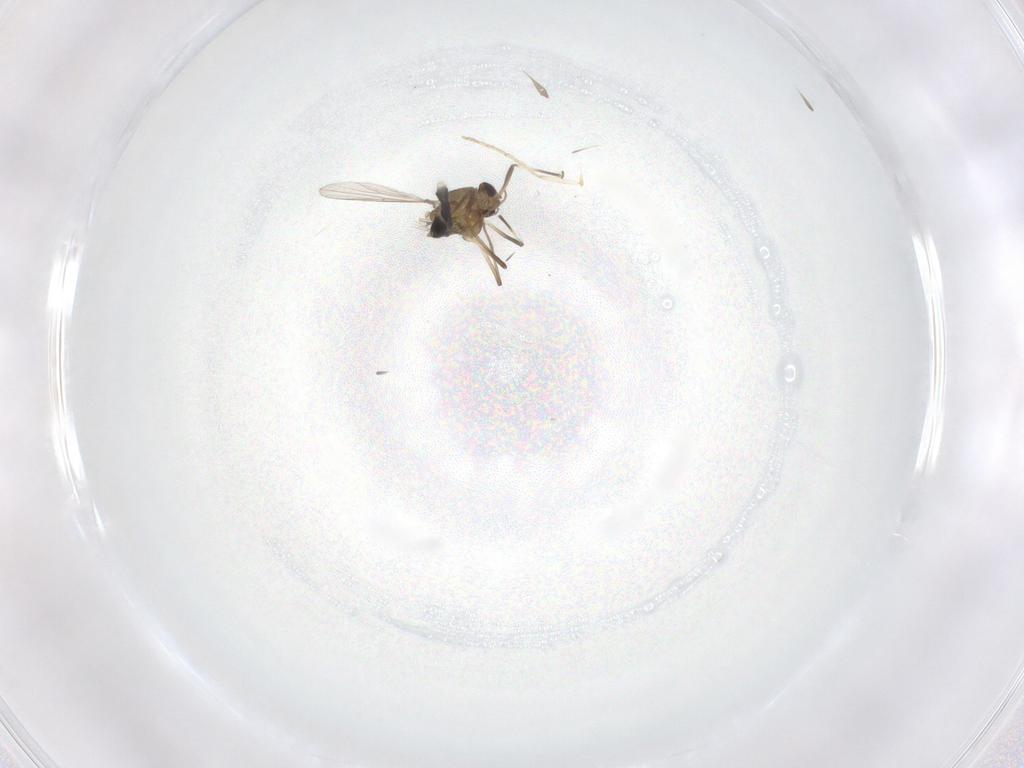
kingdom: Animalia
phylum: Arthropoda
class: Insecta
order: Diptera
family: Chironomidae
